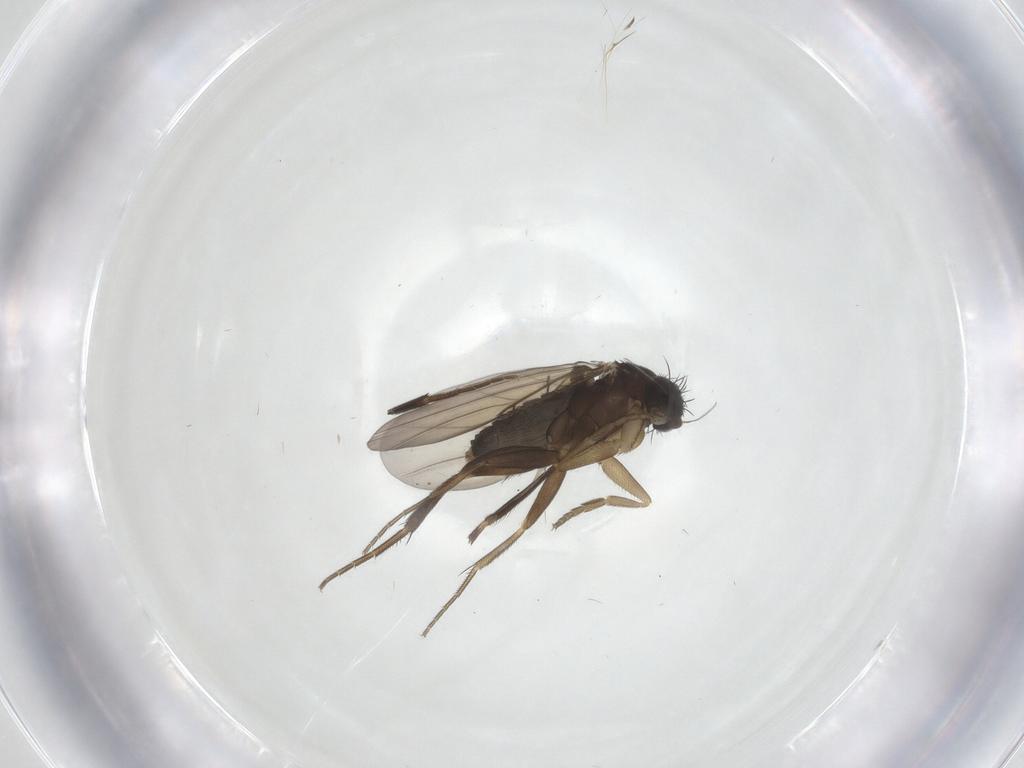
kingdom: Animalia
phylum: Arthropoda
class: Insecta
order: Diptera
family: Phoridae
